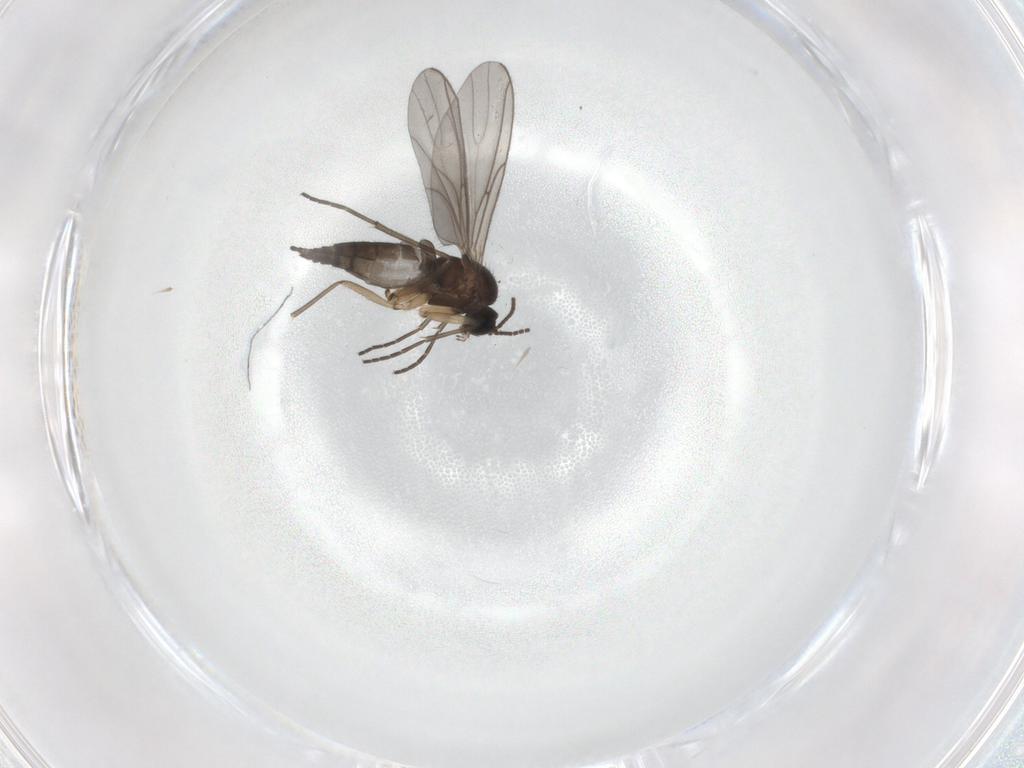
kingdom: Animalia
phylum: Arthropoda
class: Insecta
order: Diptera
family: Sciaridae
